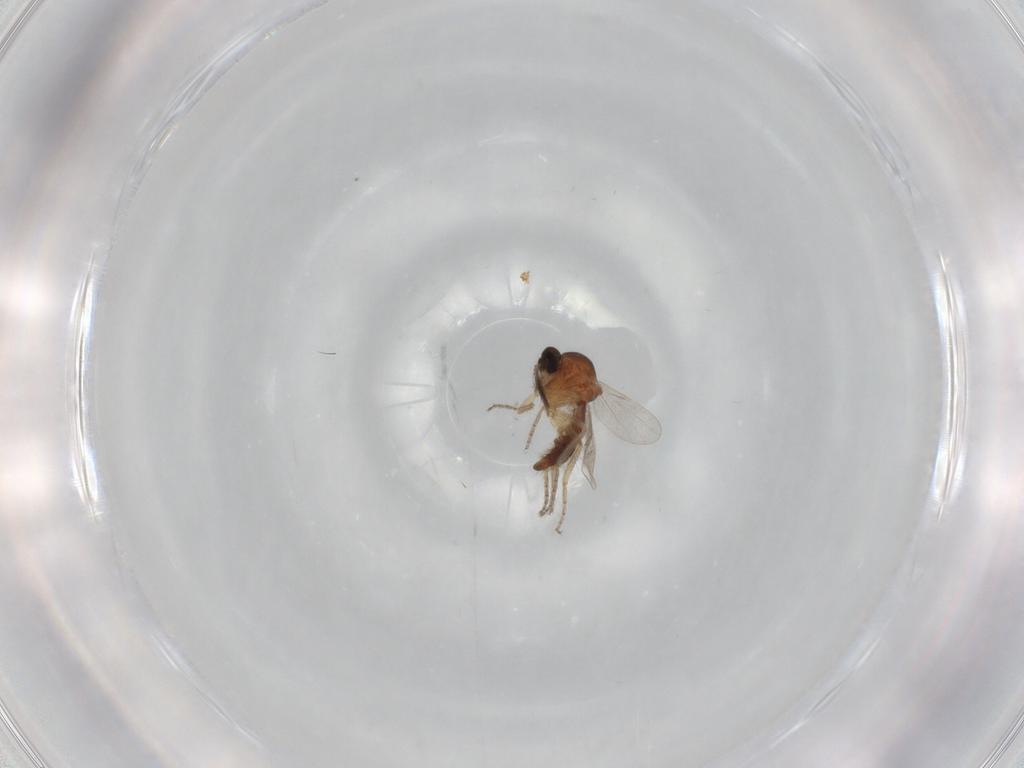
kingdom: Animalia
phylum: Arthropoda
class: Insecta
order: Diptera
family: Ceratopogonidae
